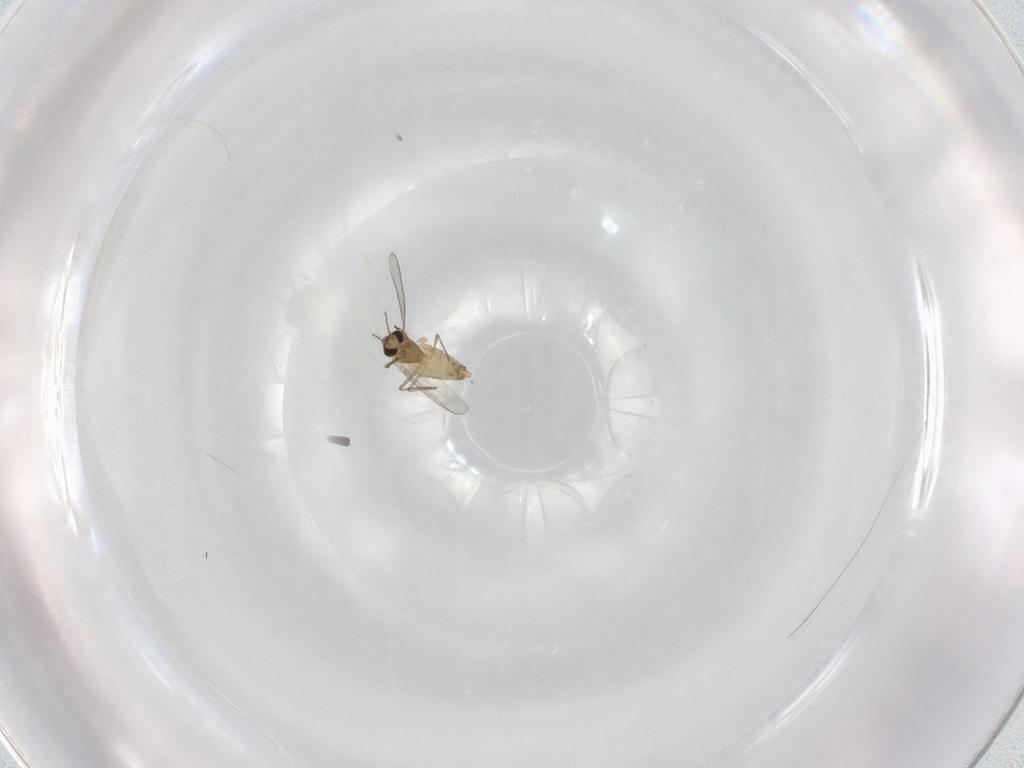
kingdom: Animalia
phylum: Arthropoda
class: Insecta
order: Diptera
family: Chironomidae
